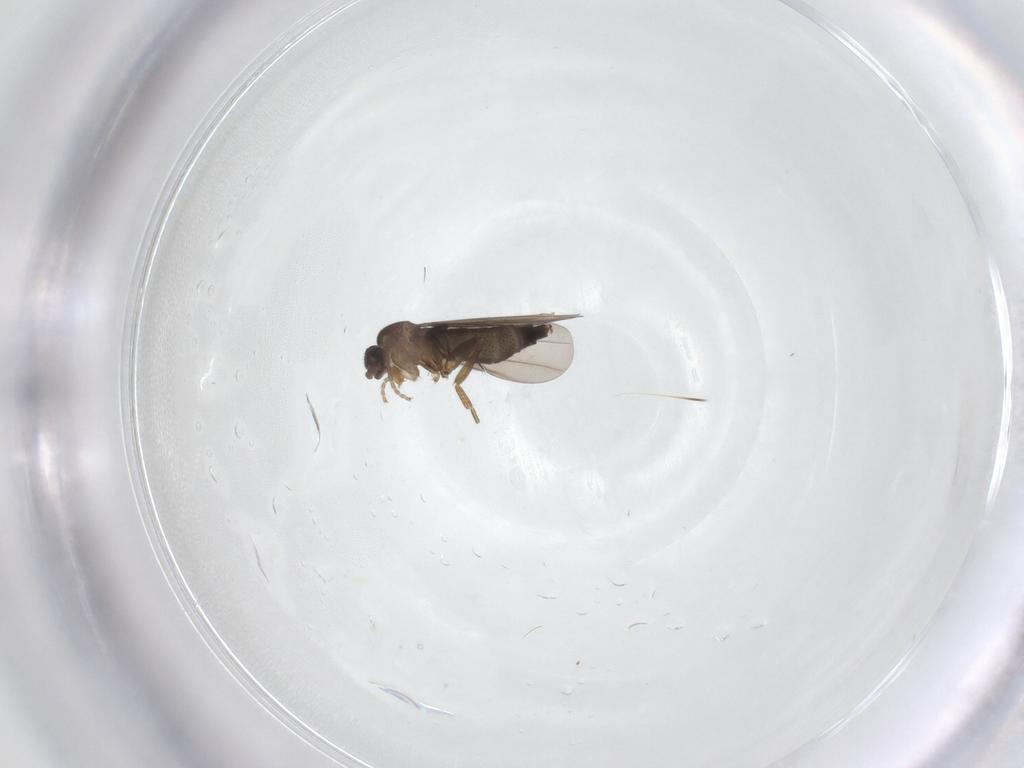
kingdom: Animalia
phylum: Arthropoda
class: Insecta
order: Diptera
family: Phoridae
